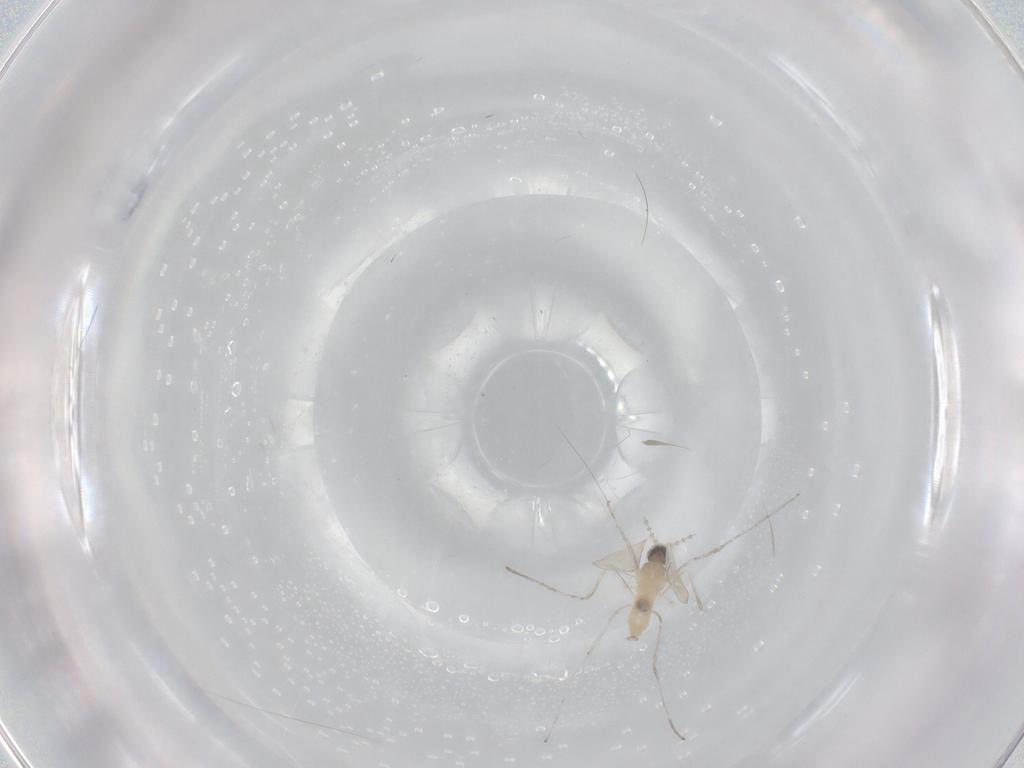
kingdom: Animalia
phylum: Arthropoda
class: Insecta
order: Diptera
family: Cecidomyiidae
